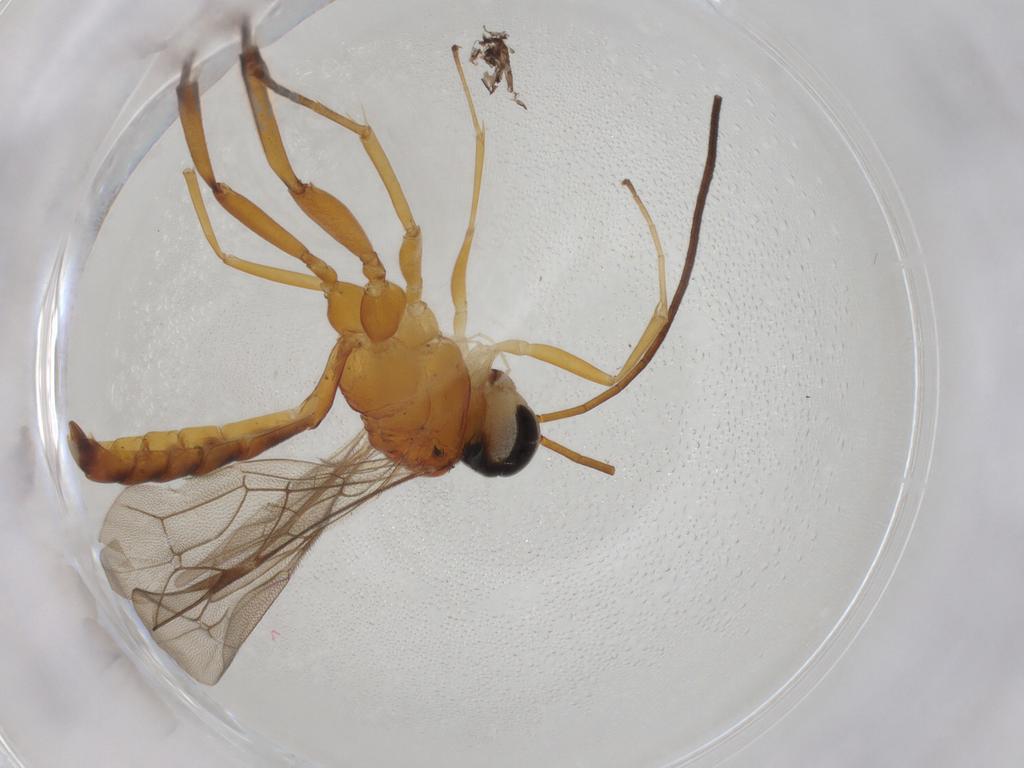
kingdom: Animalia
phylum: Arthropoda
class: Insecta
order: Hymenoptera
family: Ichneumonidae
